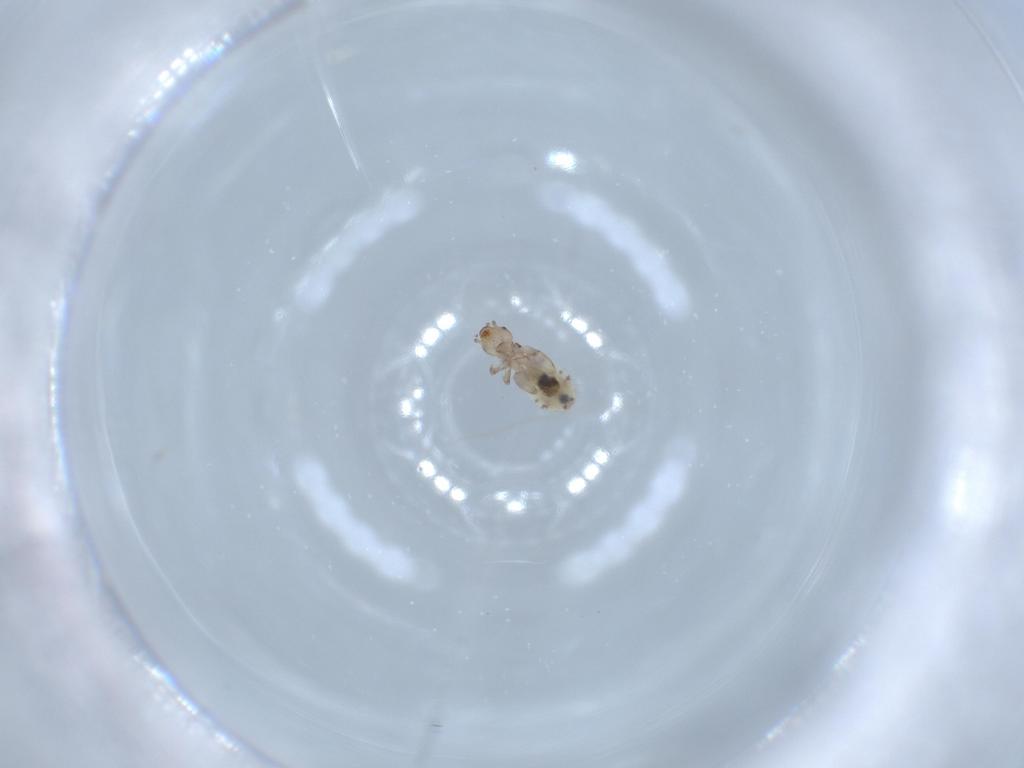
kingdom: Animalia
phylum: Arthropoda
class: Insecta
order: Psocodea
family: Liposcelididae
